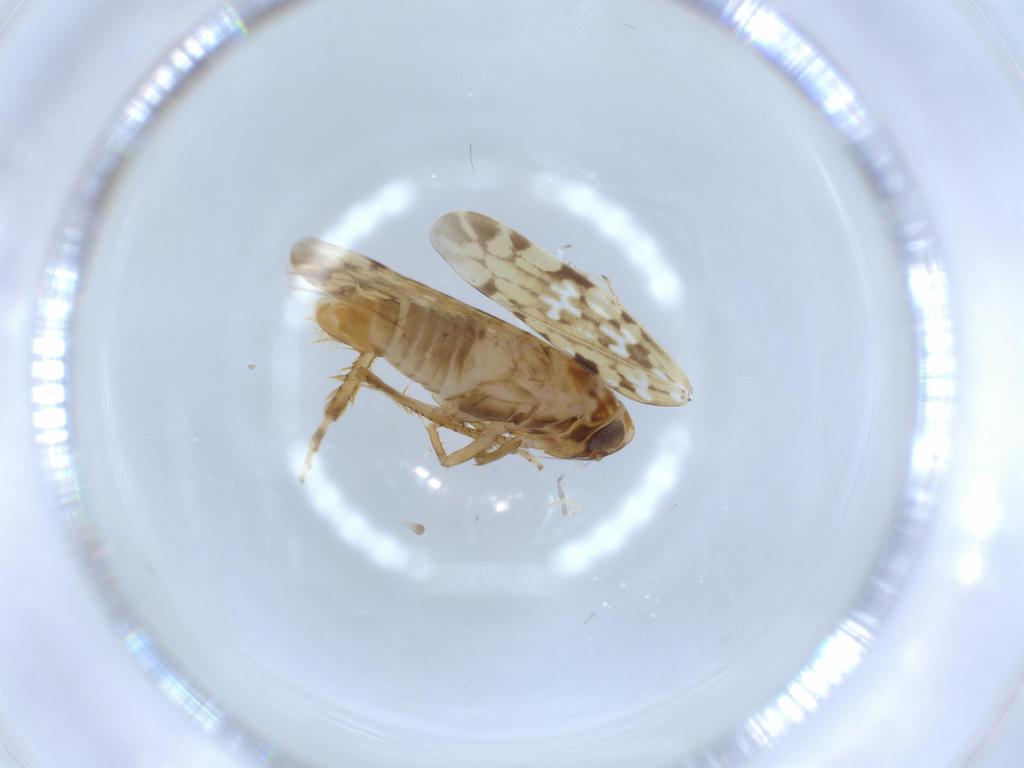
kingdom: Animalia
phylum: Arthropoda
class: Insecta
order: Hemiptera
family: Cicadellidae
